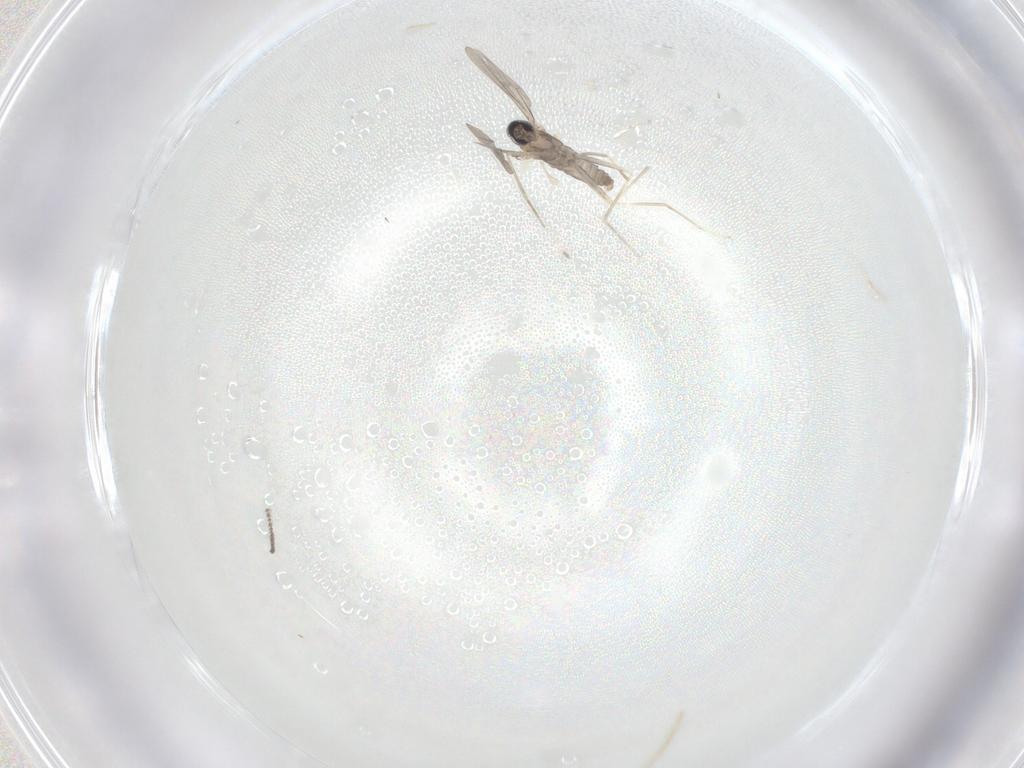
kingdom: Animalia
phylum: Arthropoda
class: Insecta
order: Diptera
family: Cecidomyiidae
